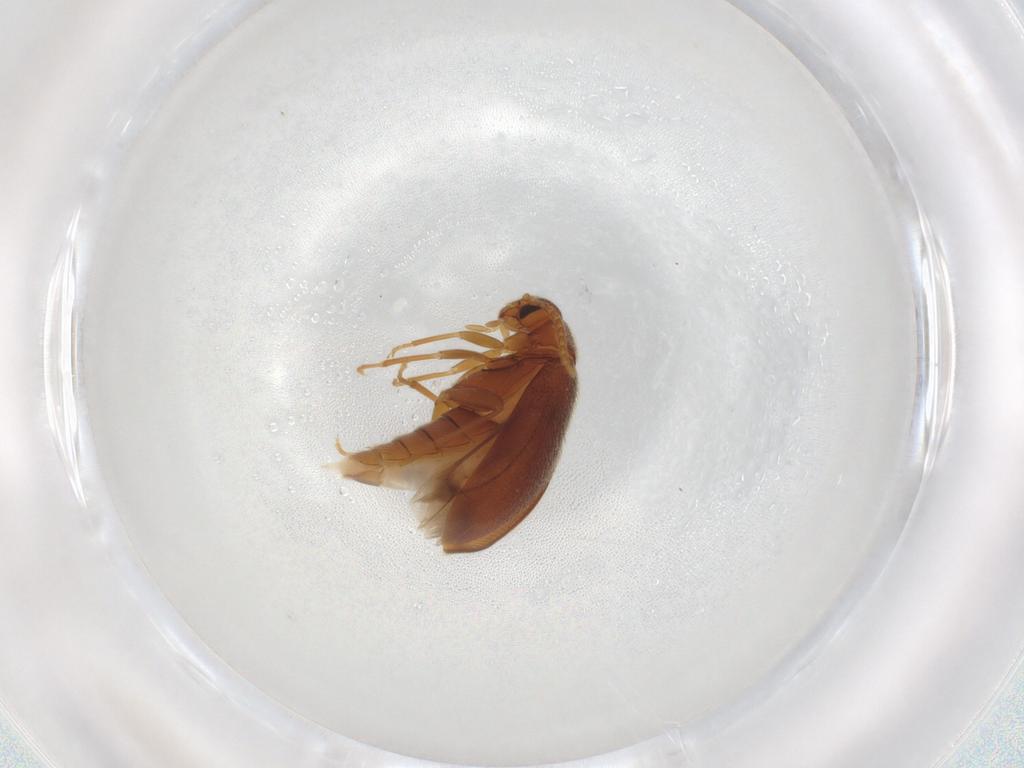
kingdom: Animalia
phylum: Arthropoda
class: Insecta
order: Coleoptera
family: Scraptiidae
